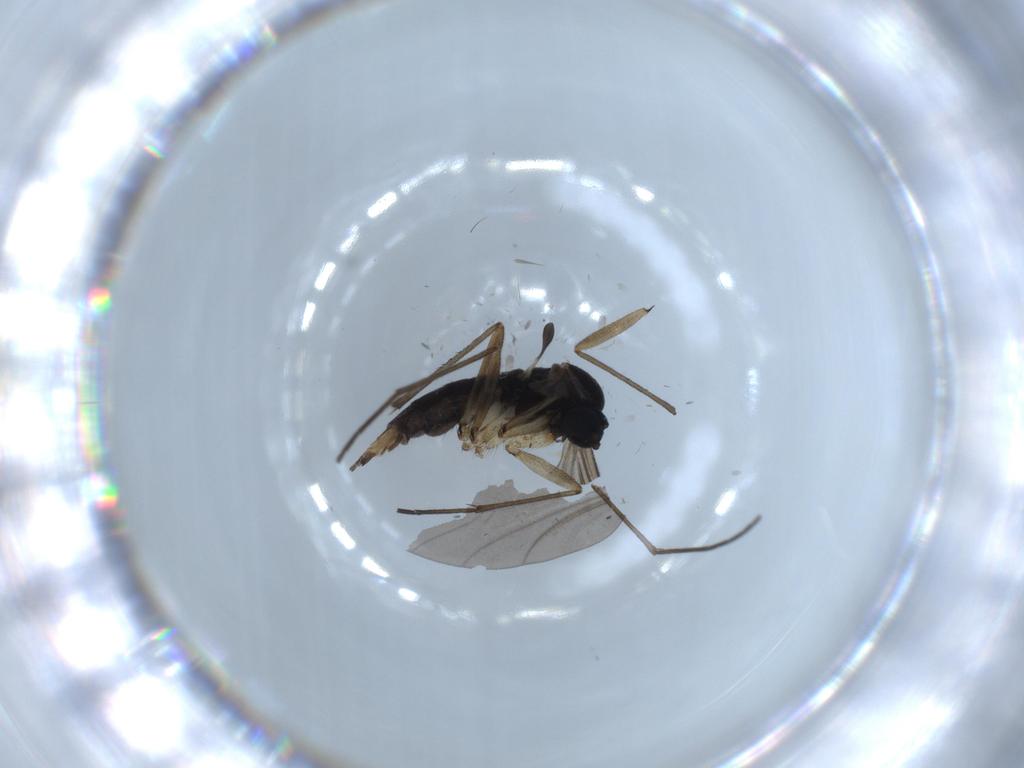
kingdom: Animalia
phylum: Arthropoda
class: Insecta
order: Diptera
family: Sciaridae
